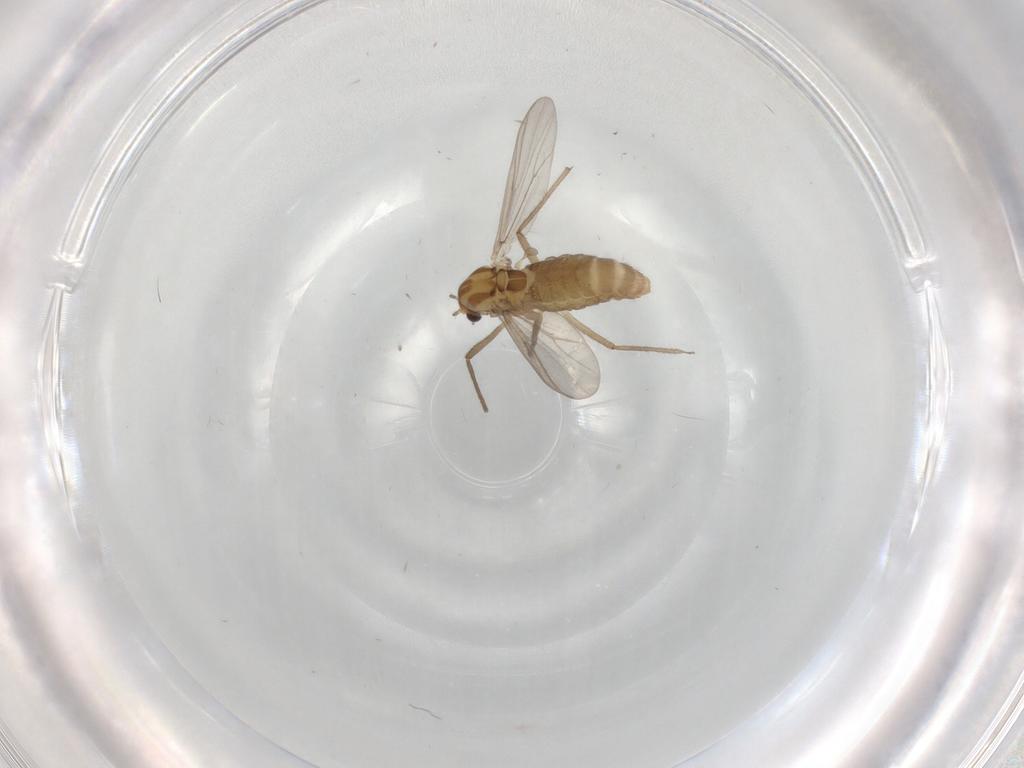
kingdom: Animalia
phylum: Arthropoda
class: Insecta
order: Diptera
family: Chironomidae
